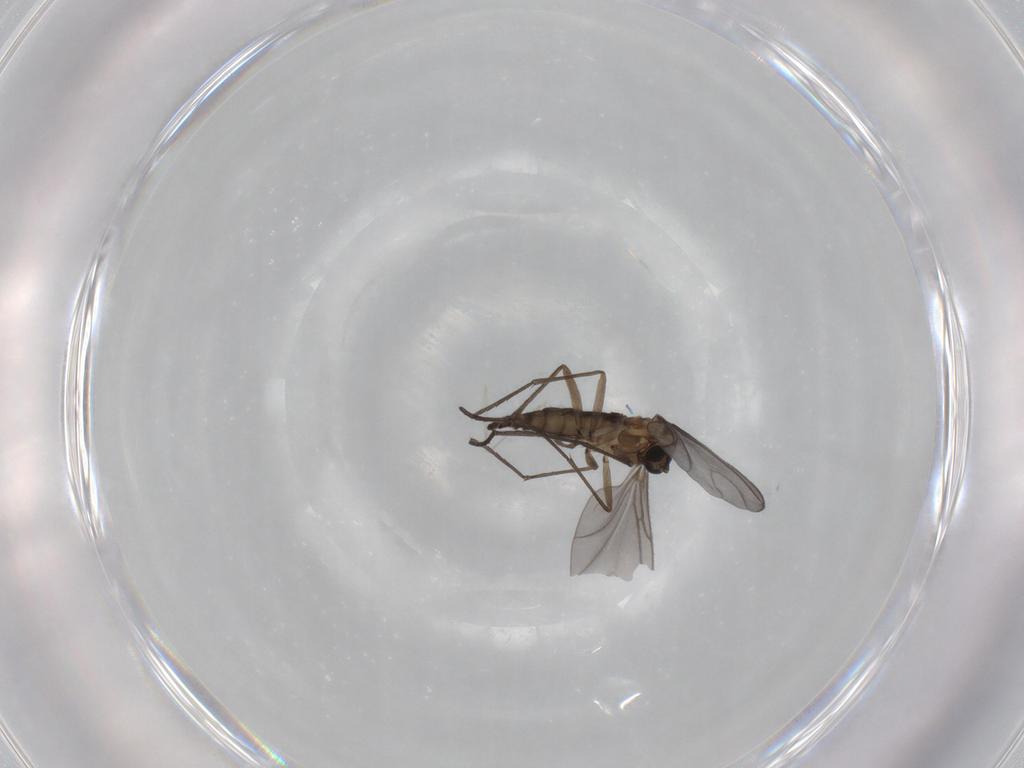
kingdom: Animalia
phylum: Arthropoda
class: Insecta
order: Diptera
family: Sciaridae
